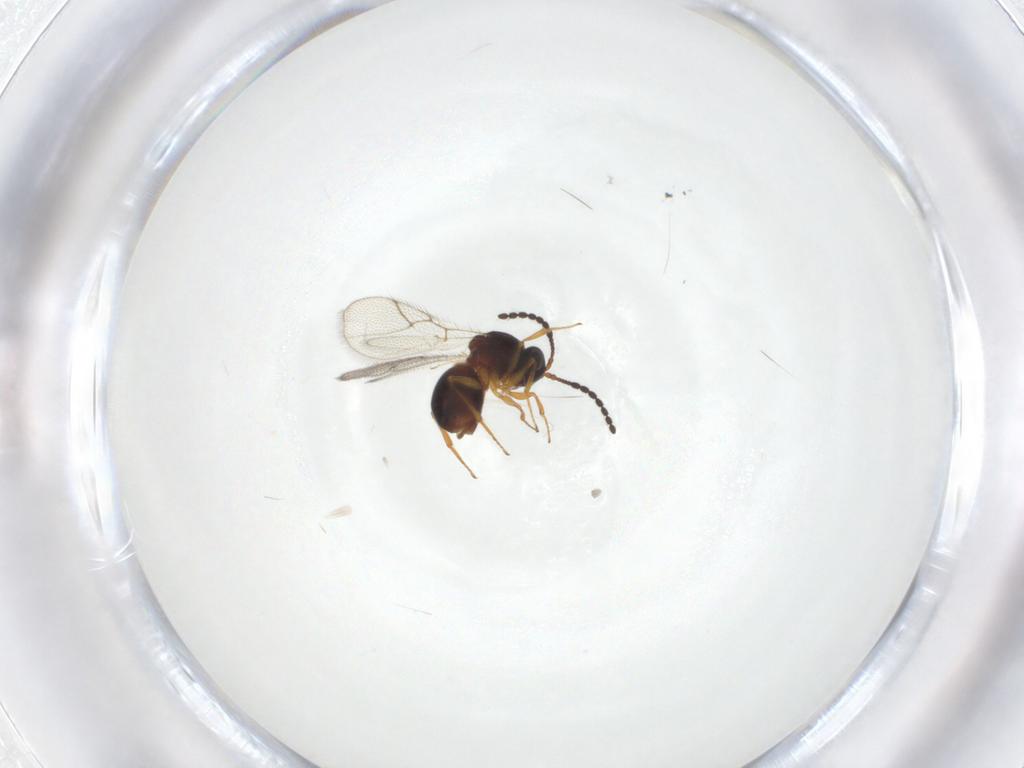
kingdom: Animalia
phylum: Arthropoda
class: Insecta
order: Hymenoptera
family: Figitidae
